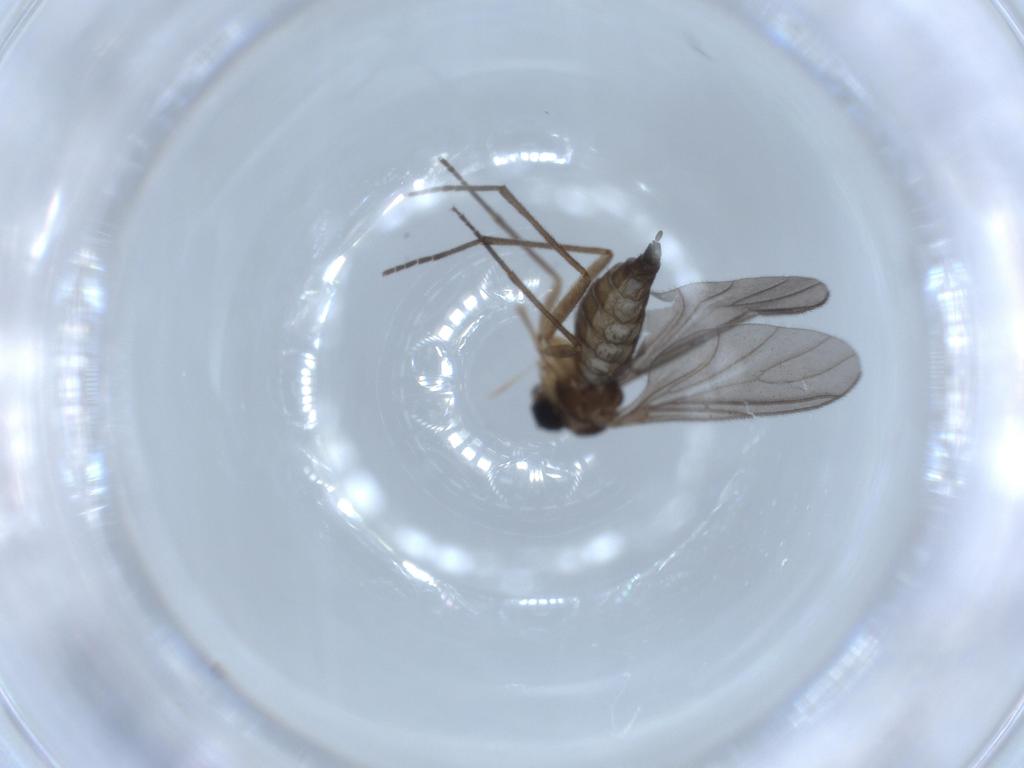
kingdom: Animalia
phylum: Arthropoda
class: Insecta
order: Diptera
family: Sciaridae
